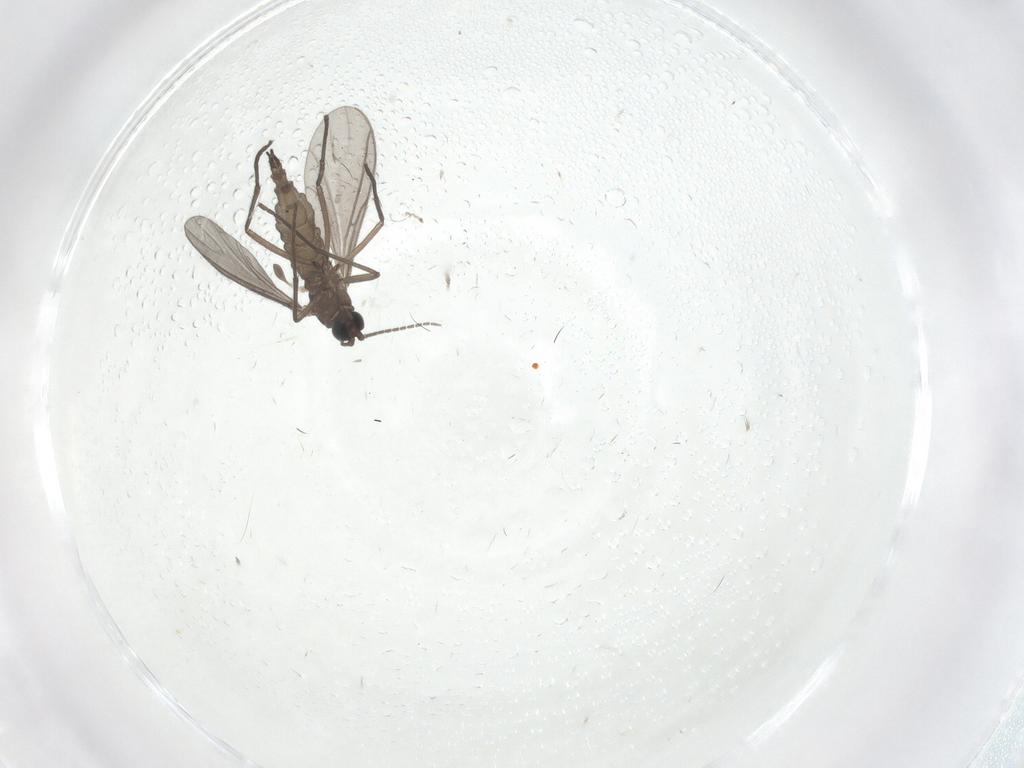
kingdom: Animalia
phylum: Arthropoda
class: Insecta
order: Diptera
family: Sciaridae
